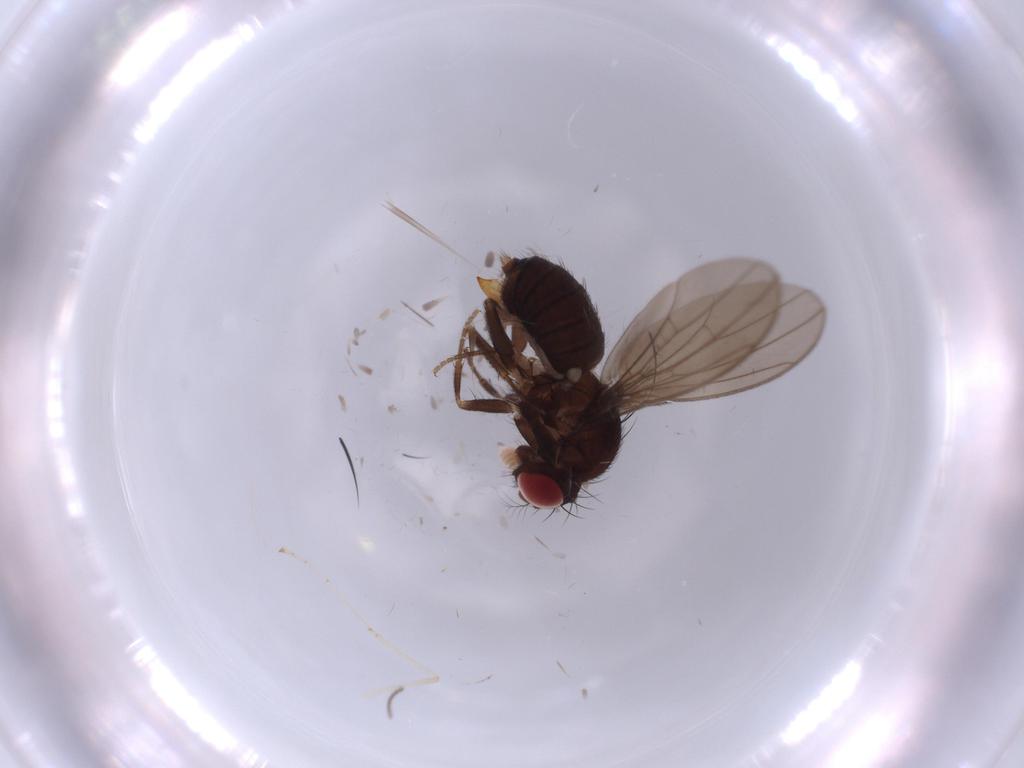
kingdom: Animalia
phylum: Arthropoda
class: Insecta
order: Diptera
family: Drosophilidae
